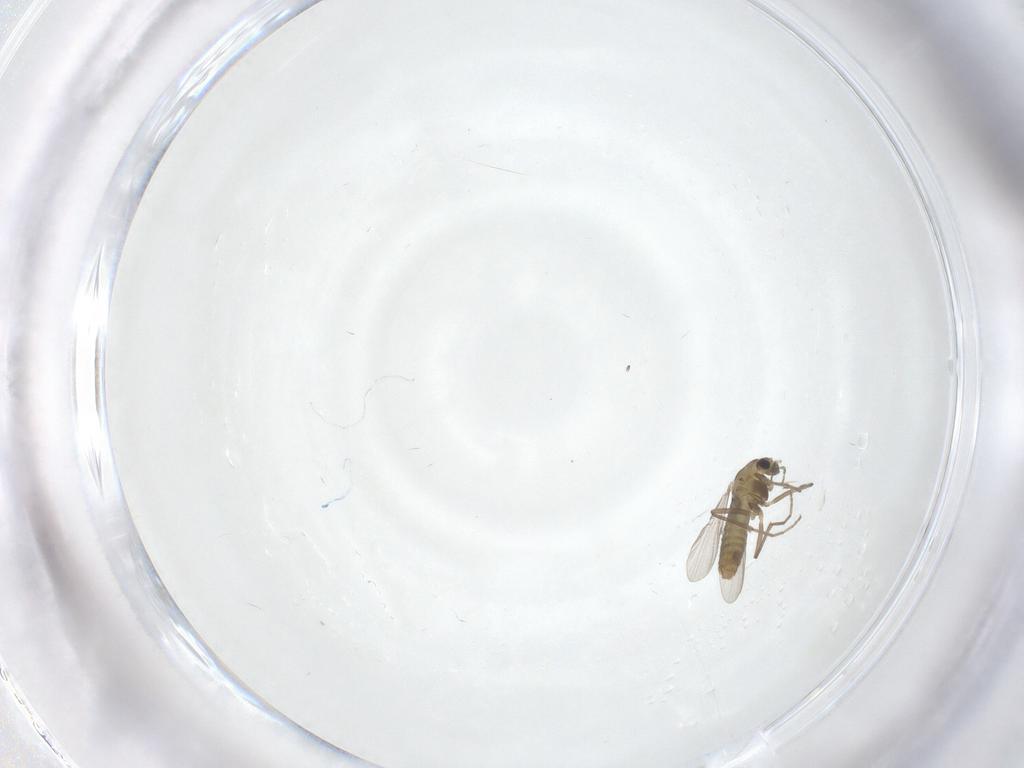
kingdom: Animalia
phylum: Arthropoda
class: Insecta
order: Diptera
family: Chironomidae
